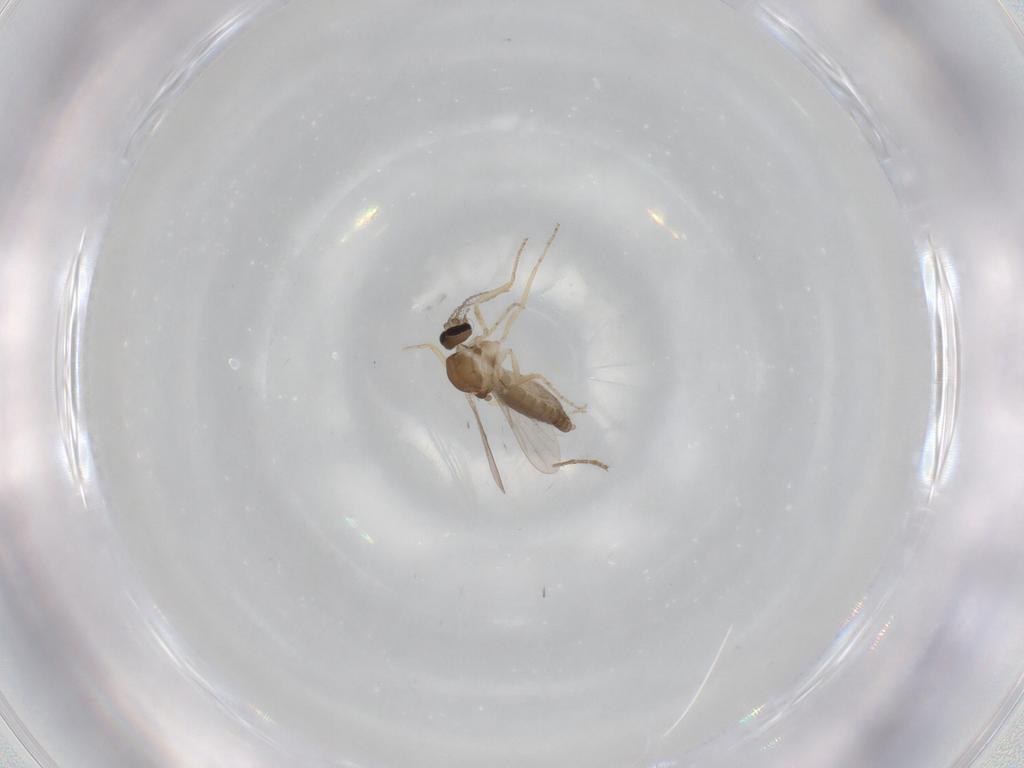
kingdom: Animalia
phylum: Arthropoda
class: Insecta
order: Diptera
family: Ceratopogonidae
